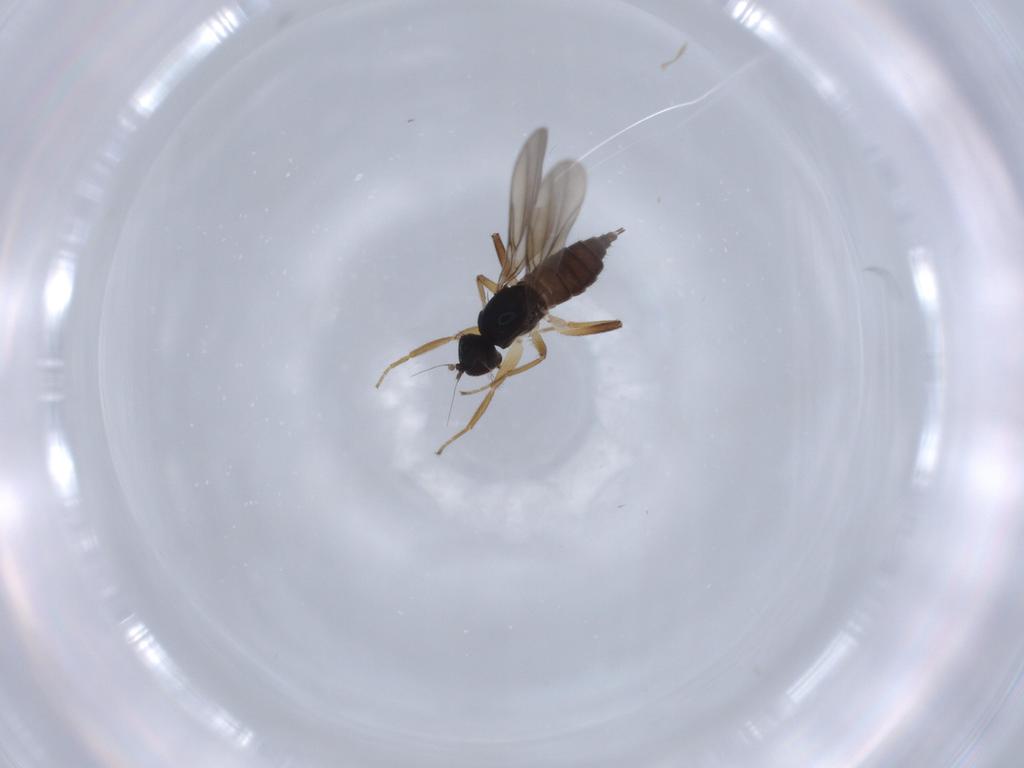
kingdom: Animalia
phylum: Arthropoda
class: Insecta
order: Diptera
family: Hybotidae
